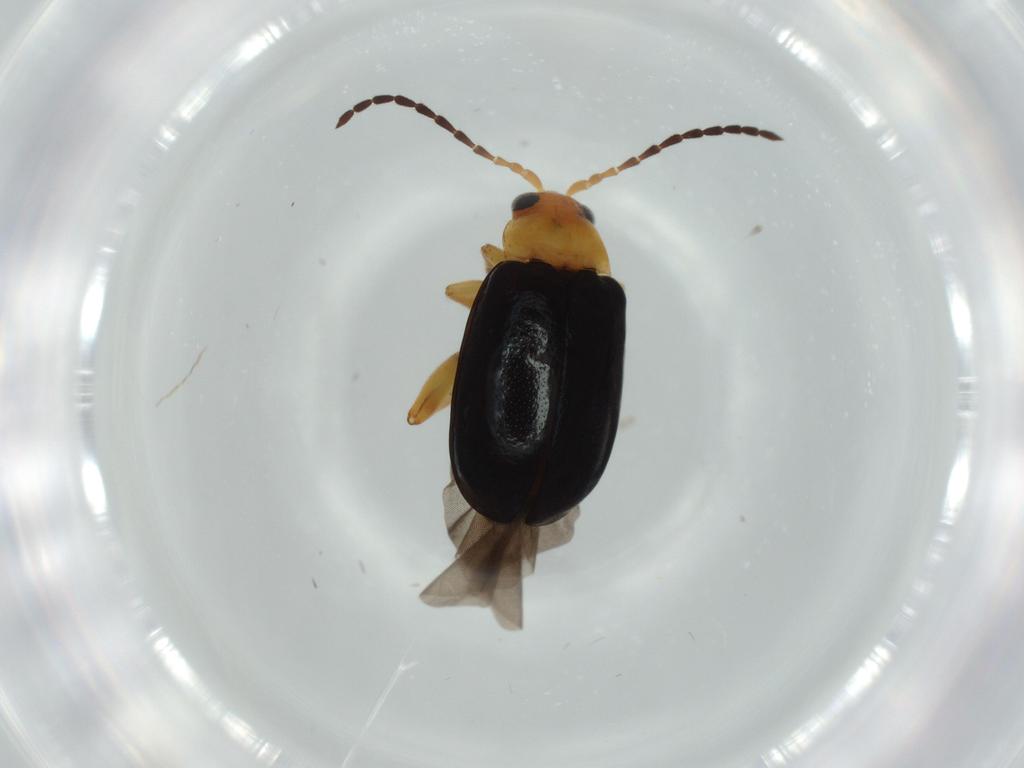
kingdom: Animalia
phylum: Arthropoda
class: Insecta
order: Coleoptera
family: Chrysomelidae
